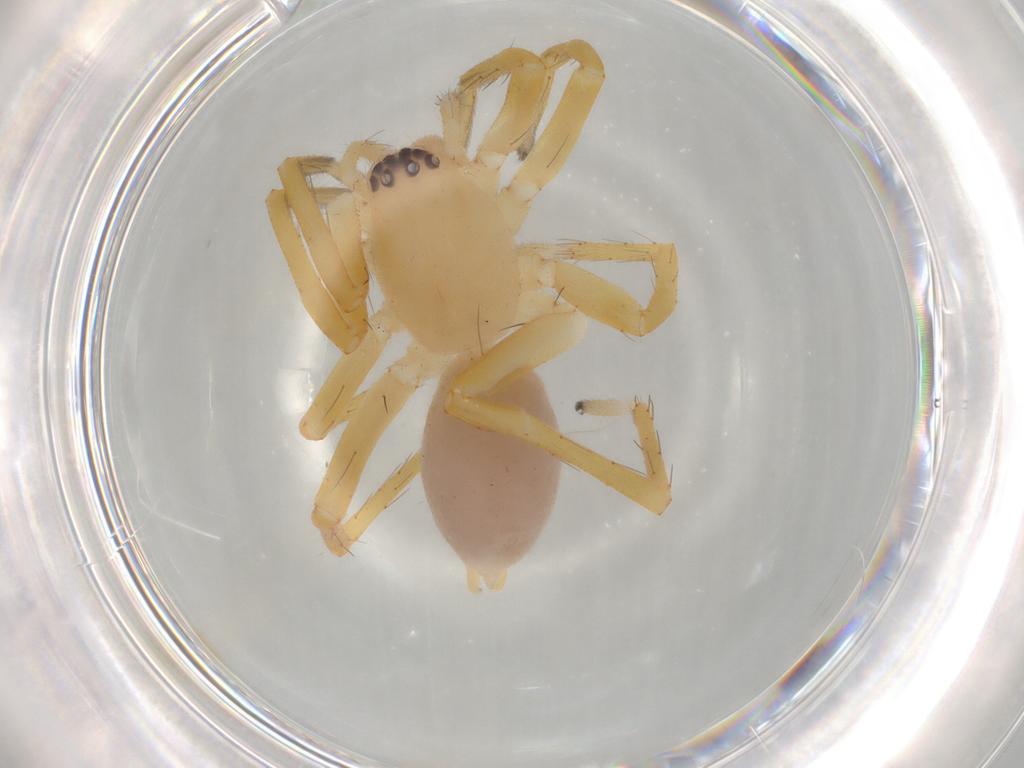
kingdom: Animalia
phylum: Arthropoda
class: Arachnida
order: Araneae
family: Clubionidae
